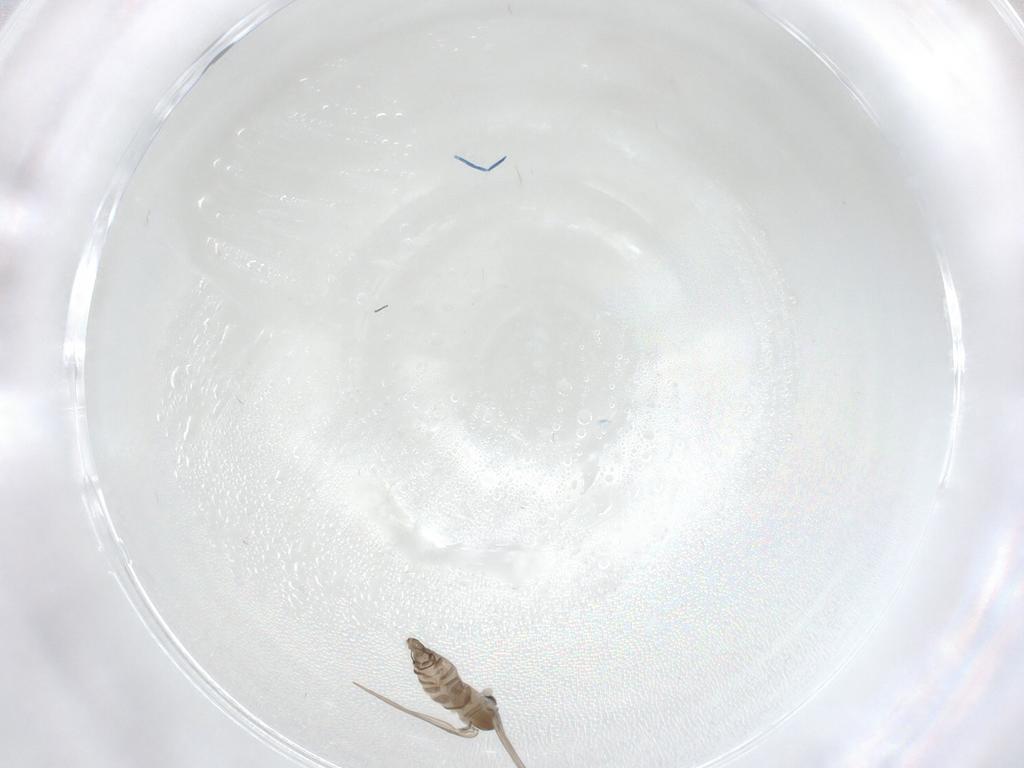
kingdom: Animalia
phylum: Arthropoda
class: Insecta
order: Diptera
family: Phoridae
